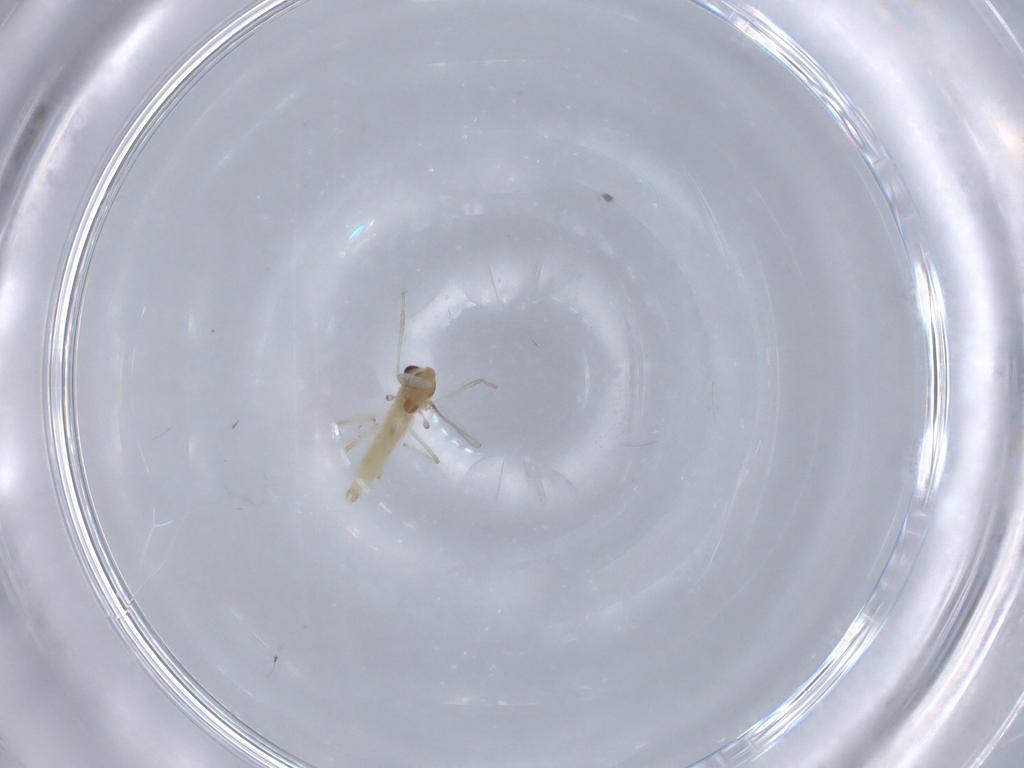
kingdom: Animalia
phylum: Arthropoda
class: Insecta
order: Diptera
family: Chironomidae
